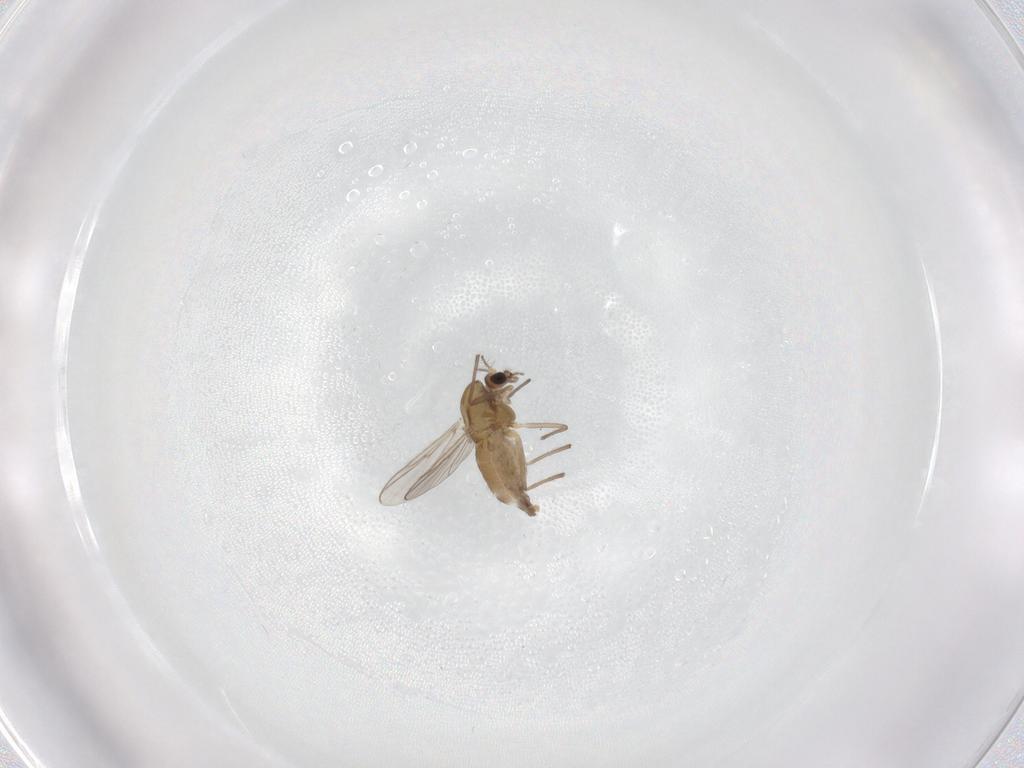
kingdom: Animalia
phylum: Arthropoda
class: Insecta
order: Diptera
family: Chironomidae
